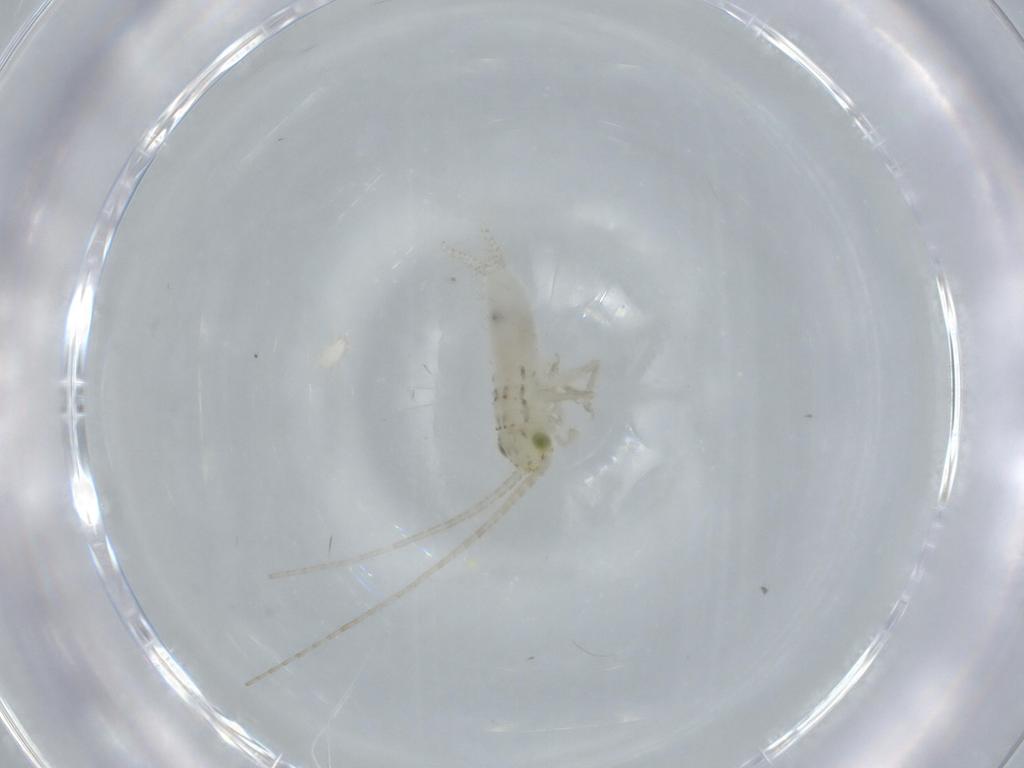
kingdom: Animalia
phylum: Arthropoda
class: Insecta
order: Orthoptera
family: Trigonidiidae
